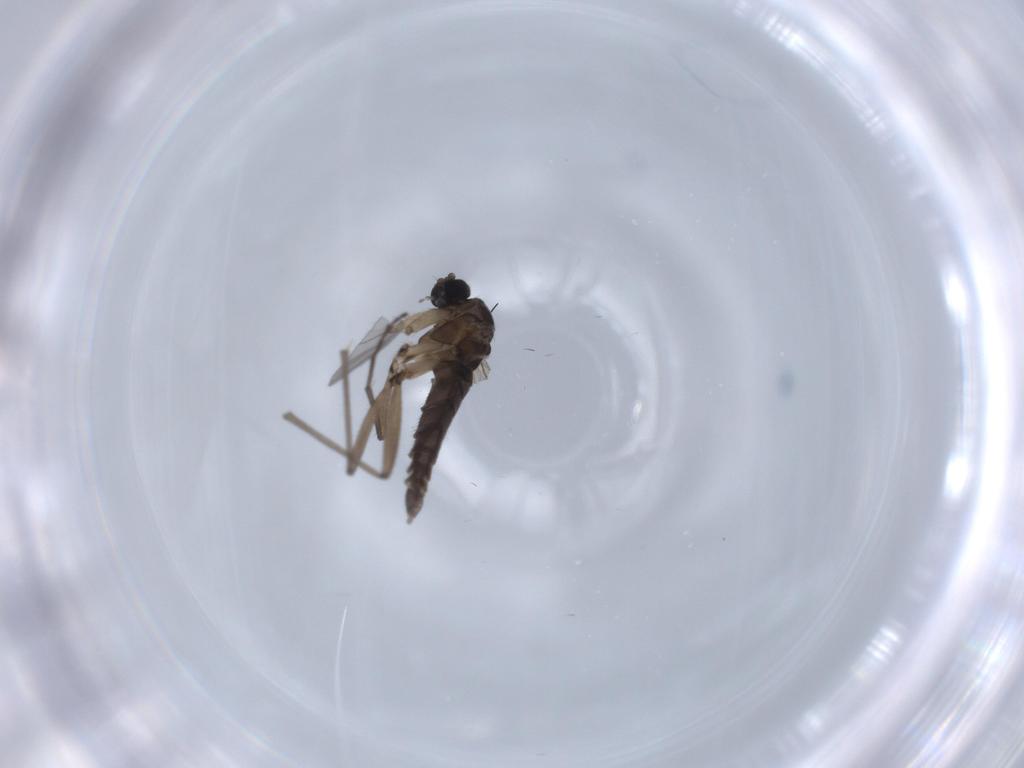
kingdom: Animalia
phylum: Arthropoda
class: Insecta
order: Diptera
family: Sciaridae
